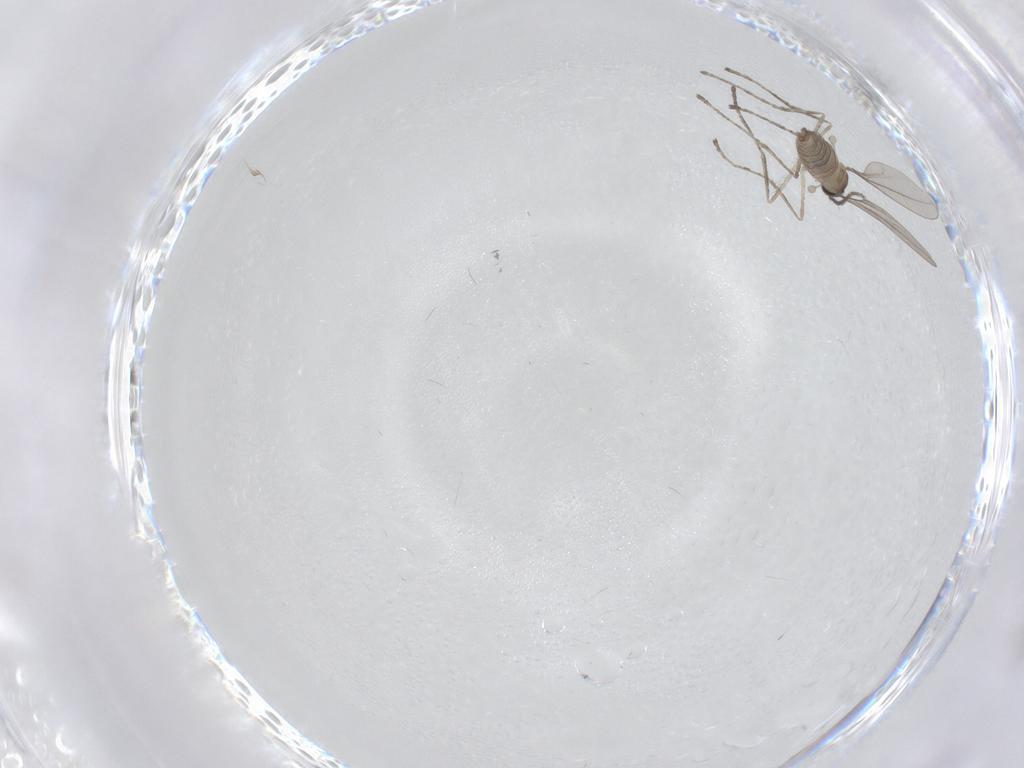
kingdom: Animalia
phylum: Arthropoda
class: Insecta
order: Diptera
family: Cecidomyiidae
